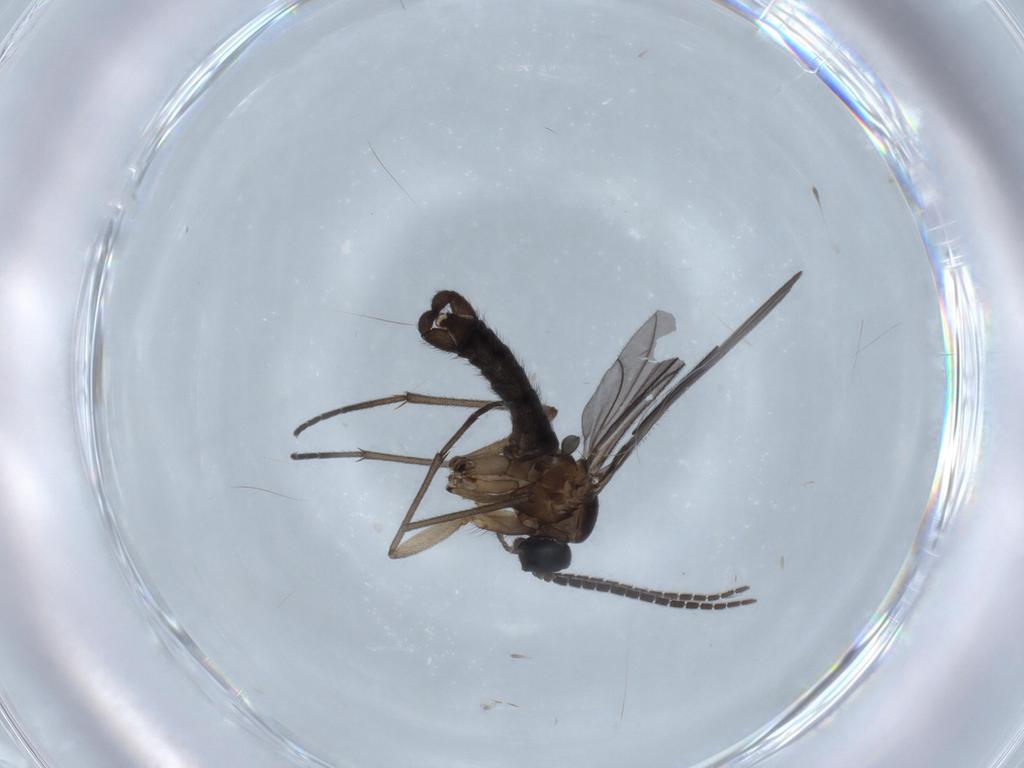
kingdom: Animalia
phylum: Arthropoda
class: Insecta
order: Diptera
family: Sciaridae
